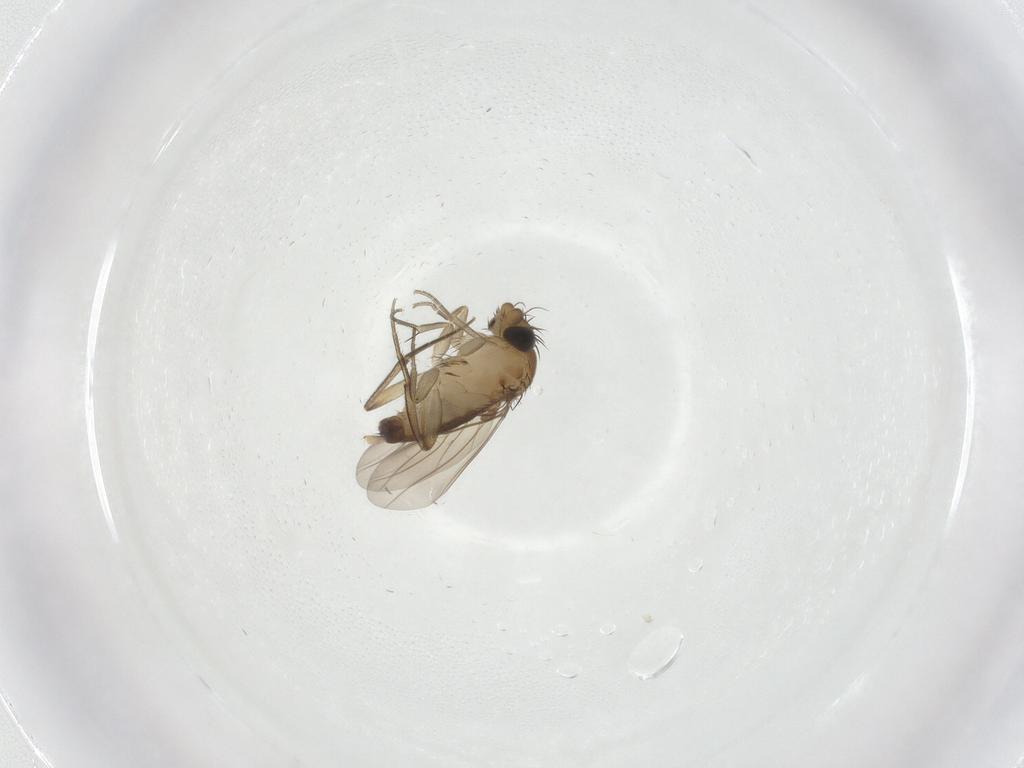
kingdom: Animalia
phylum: Arthropoda
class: Insecta
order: Diptera
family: Phoridae
